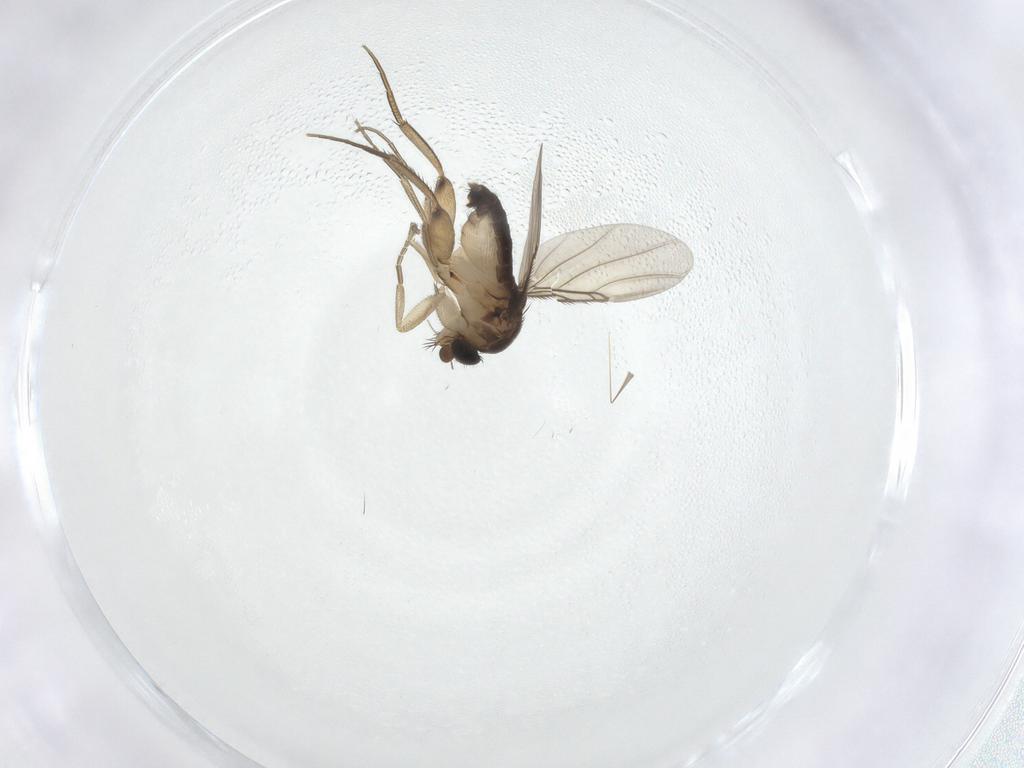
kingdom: Animalia
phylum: Arthropoda
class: Insecta
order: Diptera
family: Phoridae
